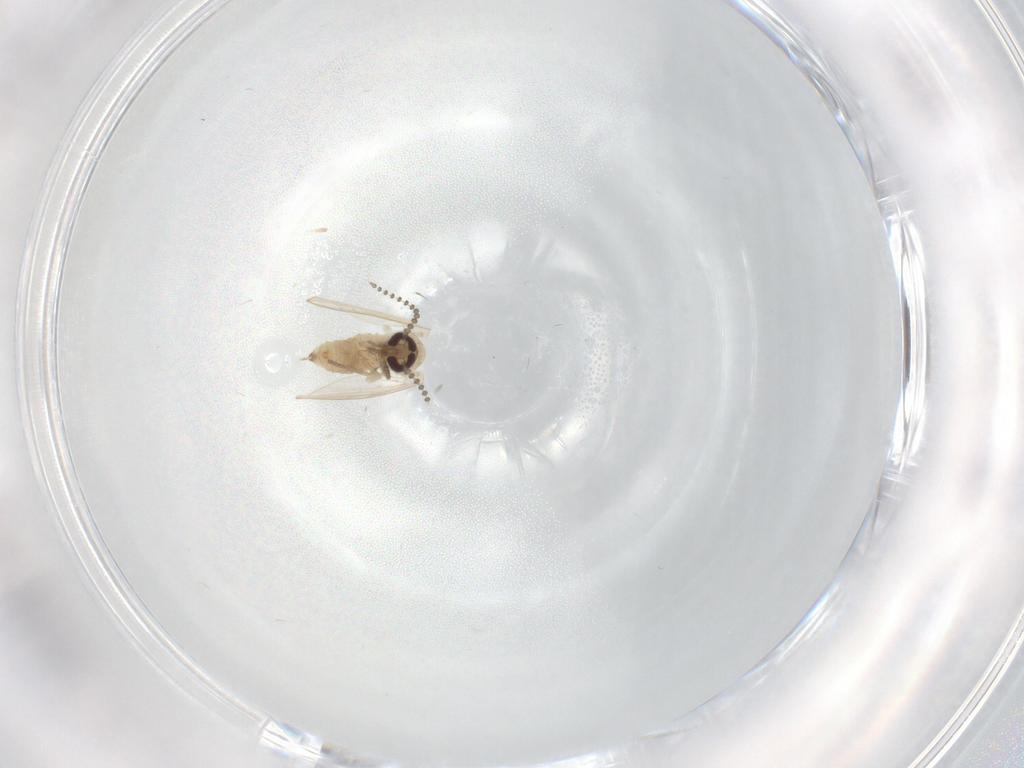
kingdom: Animalia
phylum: Arthropoda
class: Insecta
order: Diptera
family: Psychodidae
